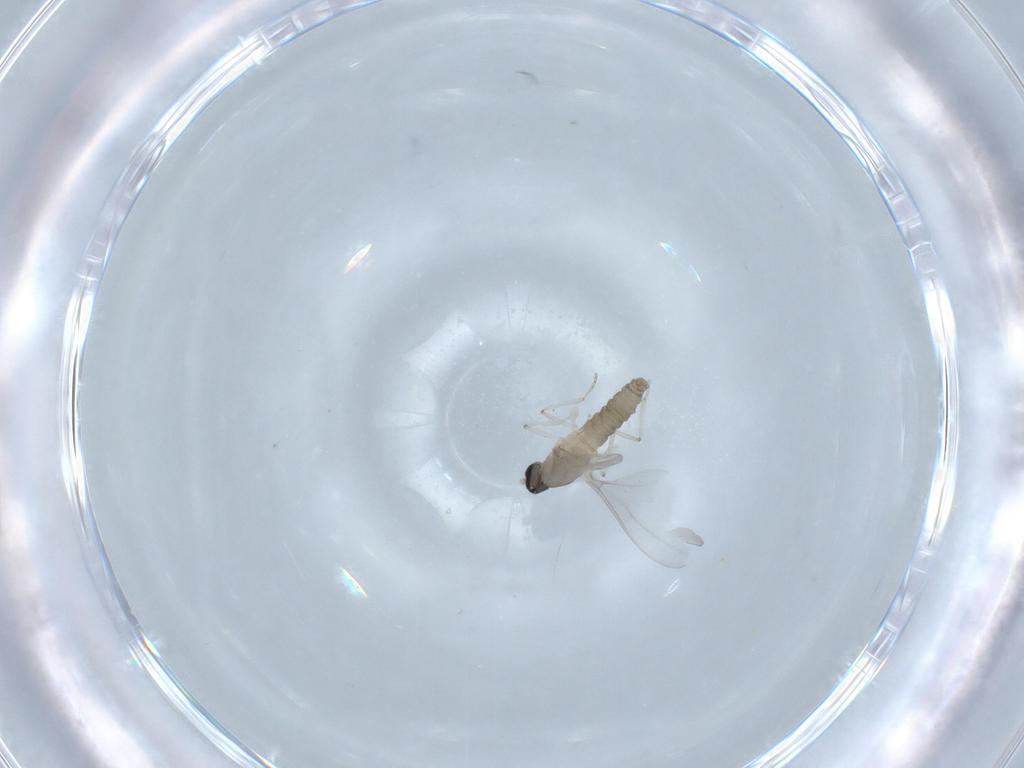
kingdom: Animalia
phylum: Arthropoda
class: Insecta
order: Diptera
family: Cecidomyiidae
